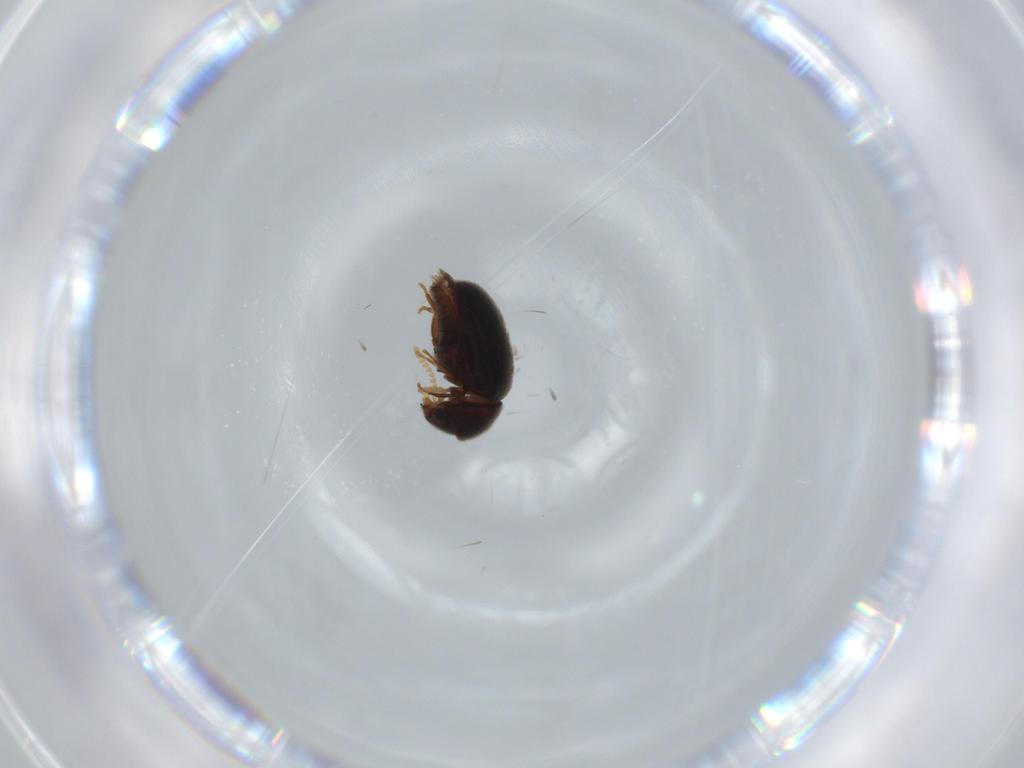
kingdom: Animalia
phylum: Arthropoda
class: Insecta
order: Coleoptera
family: Ptinidae
